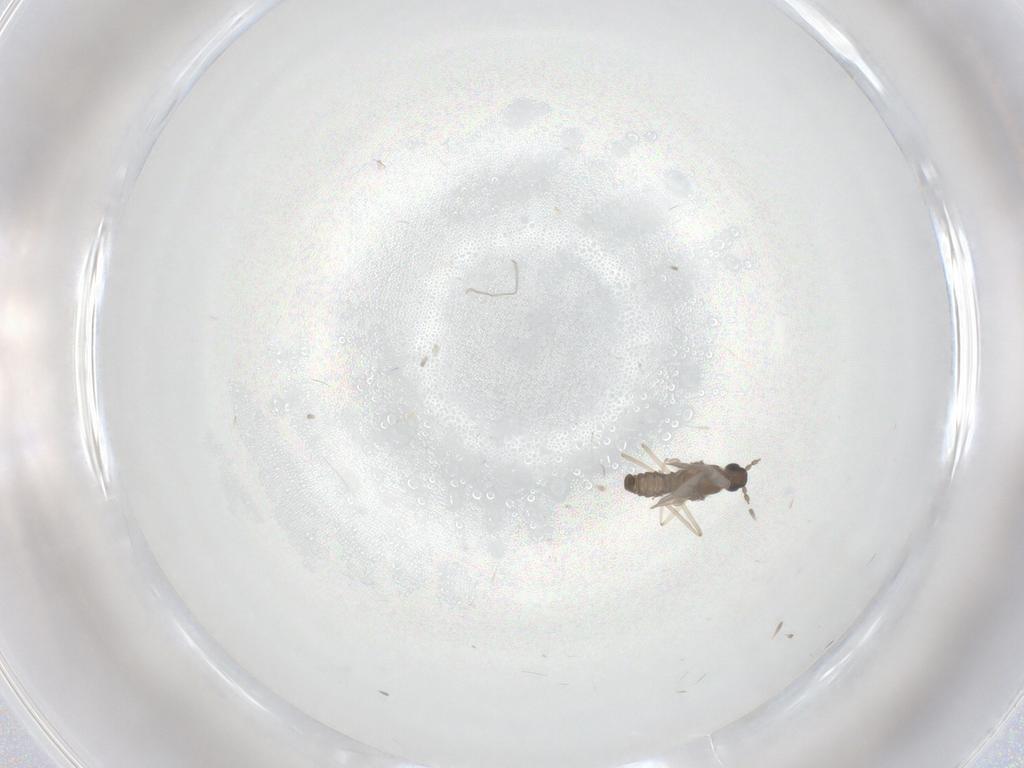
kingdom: Animalia
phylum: Arthropoda
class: Insecta
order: Diptera
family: Cecidomyiidae
